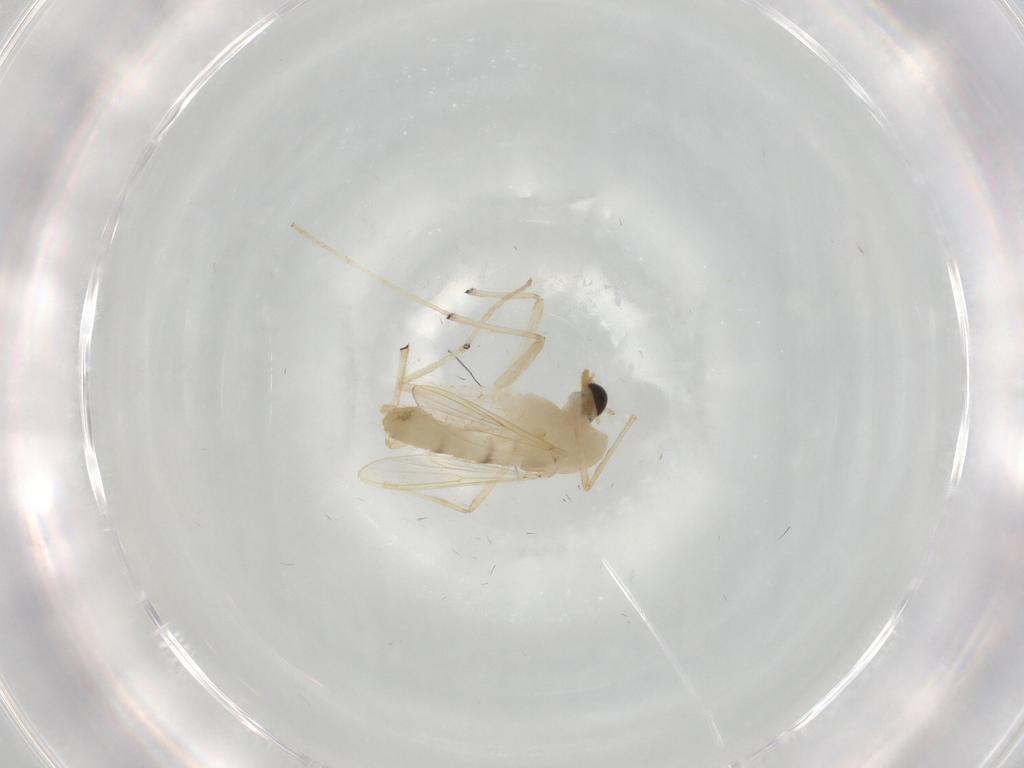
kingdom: Animalia
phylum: Arthropoda
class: Insecta
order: Diptera
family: Chironomidae
